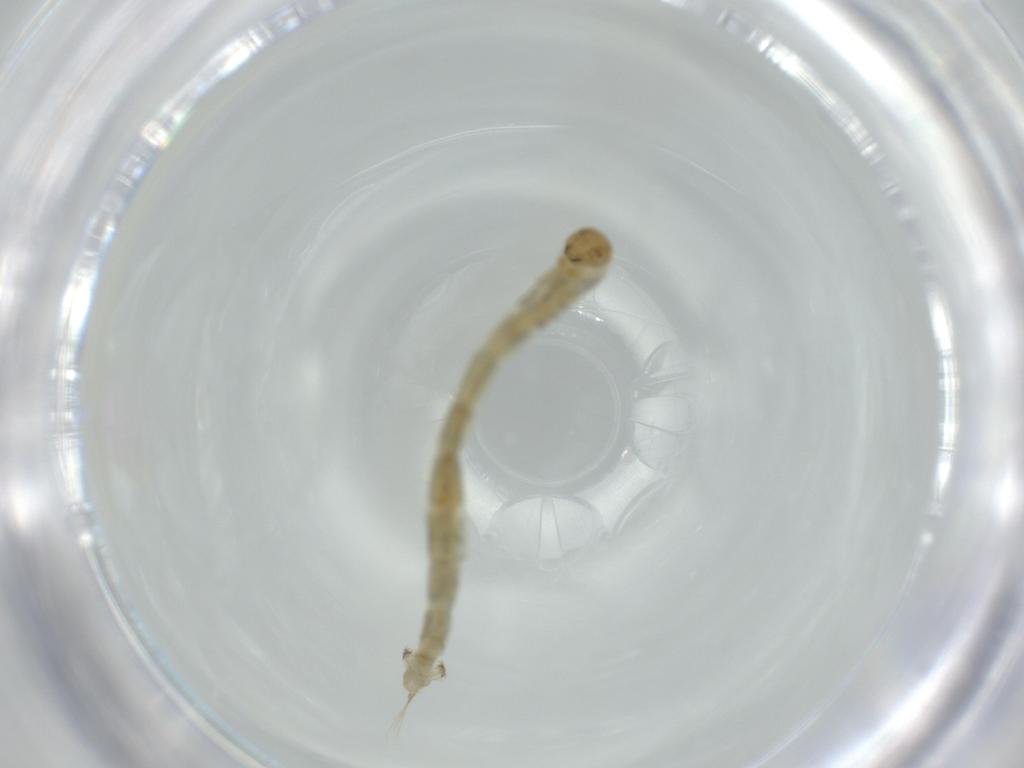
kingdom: Animalia
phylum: Arthropoda
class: Insecta
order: Diptera
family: Chironomidae
